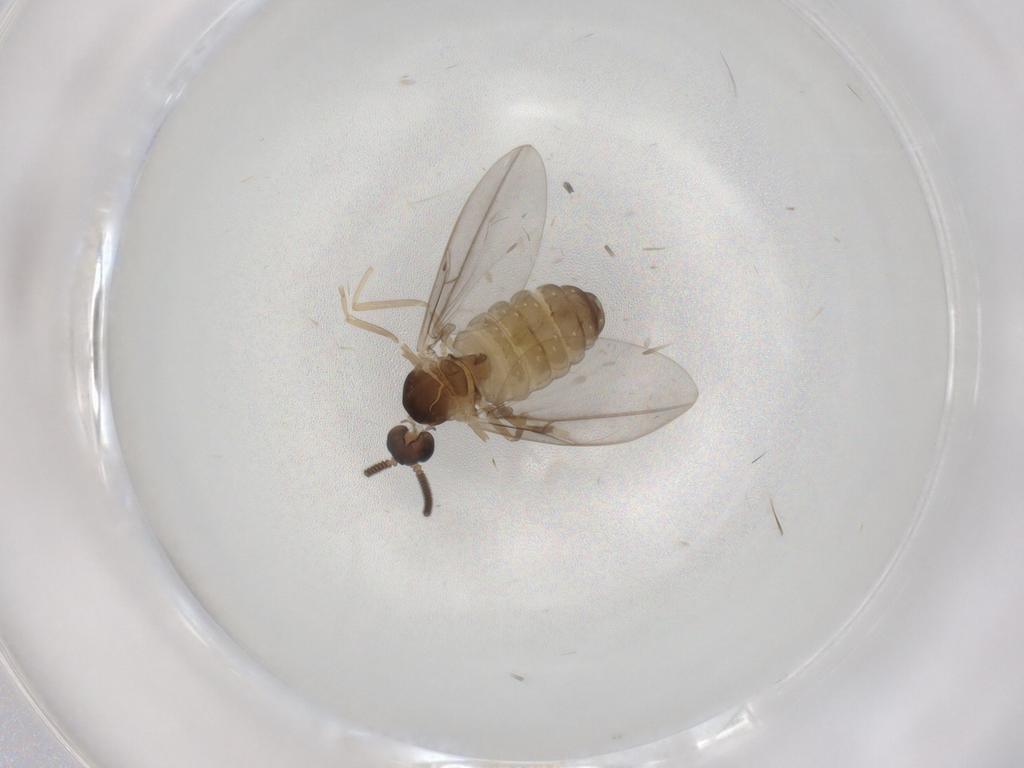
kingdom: Animalia
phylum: Arthropoda
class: Insecta
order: Diptera
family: Cecidomyiidae
